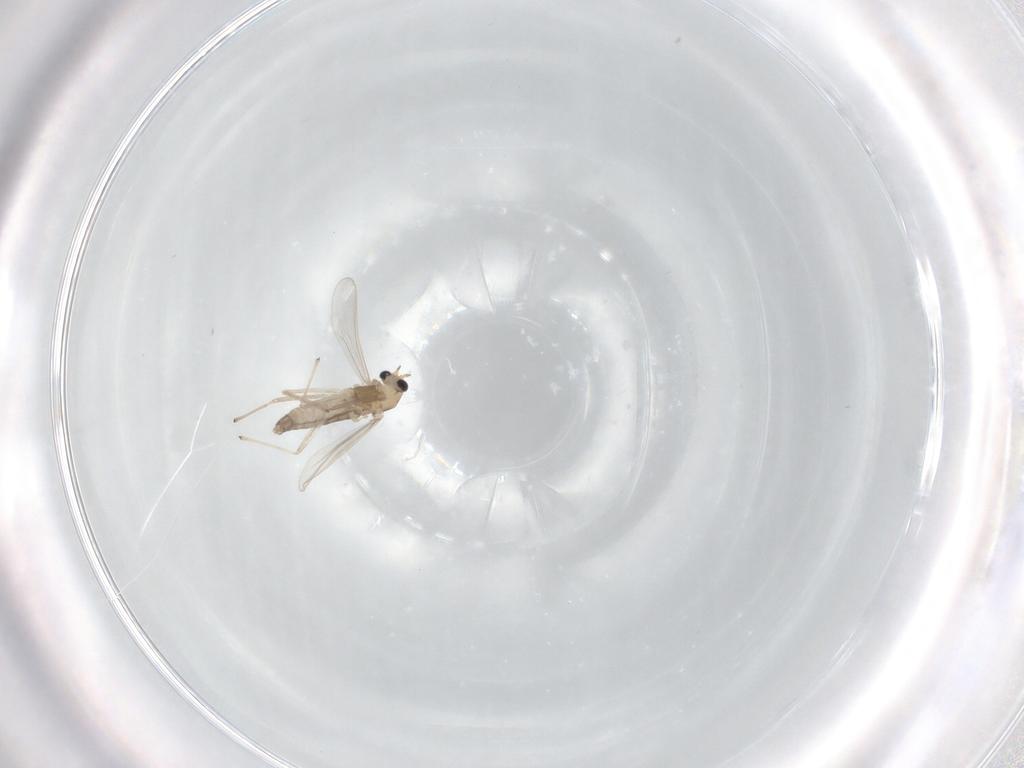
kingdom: Animalia
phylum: Arthropoda
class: Insecta
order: Diptera
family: Chironomidae
